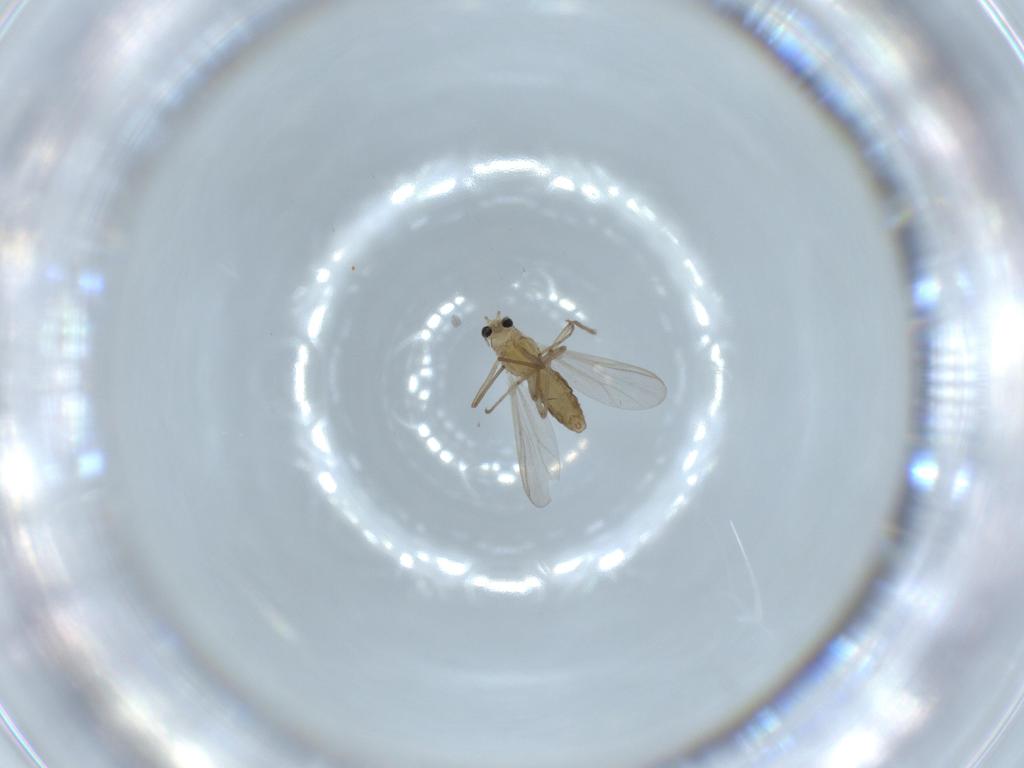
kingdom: Animalia
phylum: Arthropoda
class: Insecta
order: Diptera
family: Chironomidae
